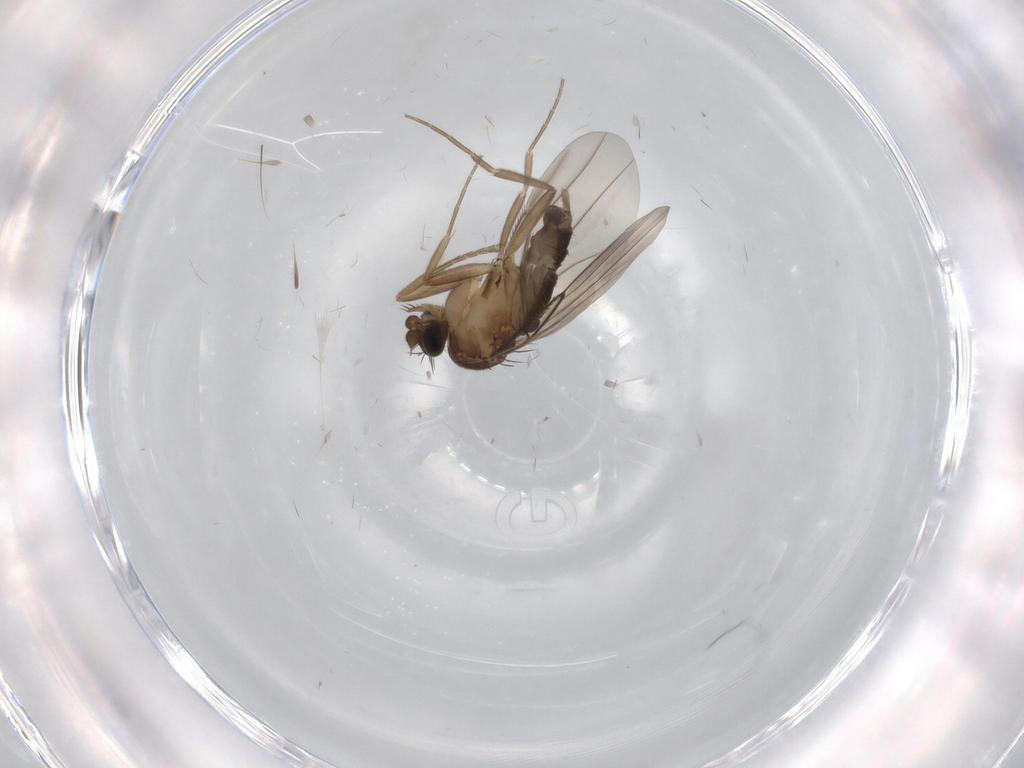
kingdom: Animalia
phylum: Arthropoda
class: Insecta
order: Diptera
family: Phoridae
